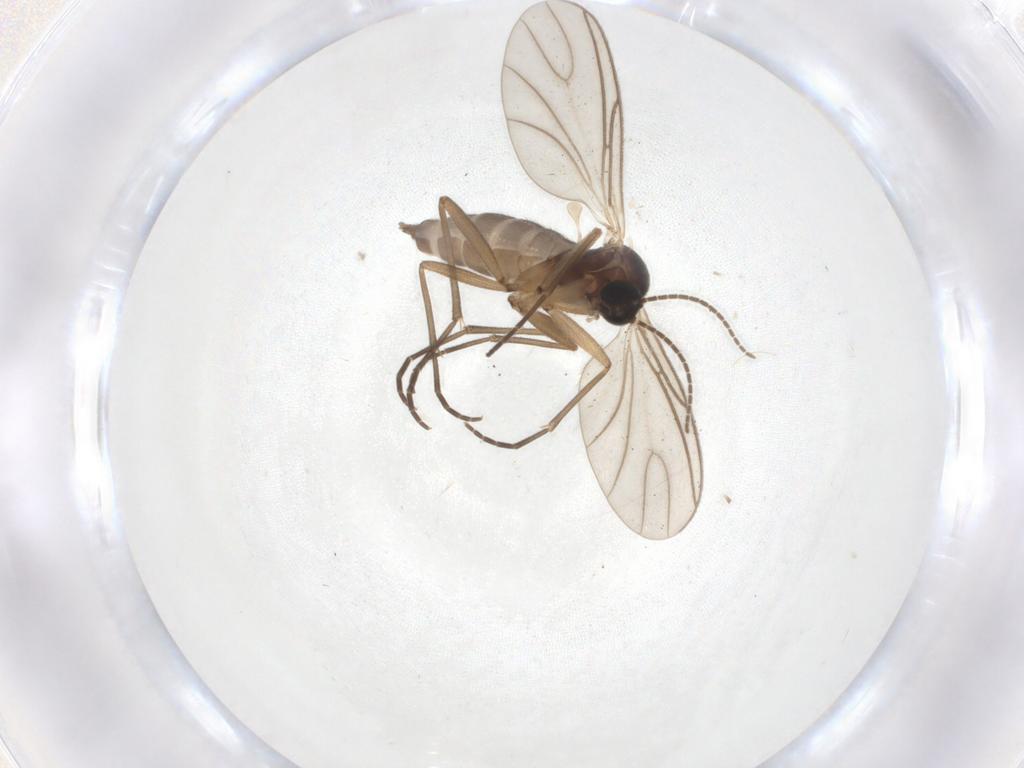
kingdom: Animalia
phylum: Arthropoda
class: Insecta
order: Diptera
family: Sciaridae
